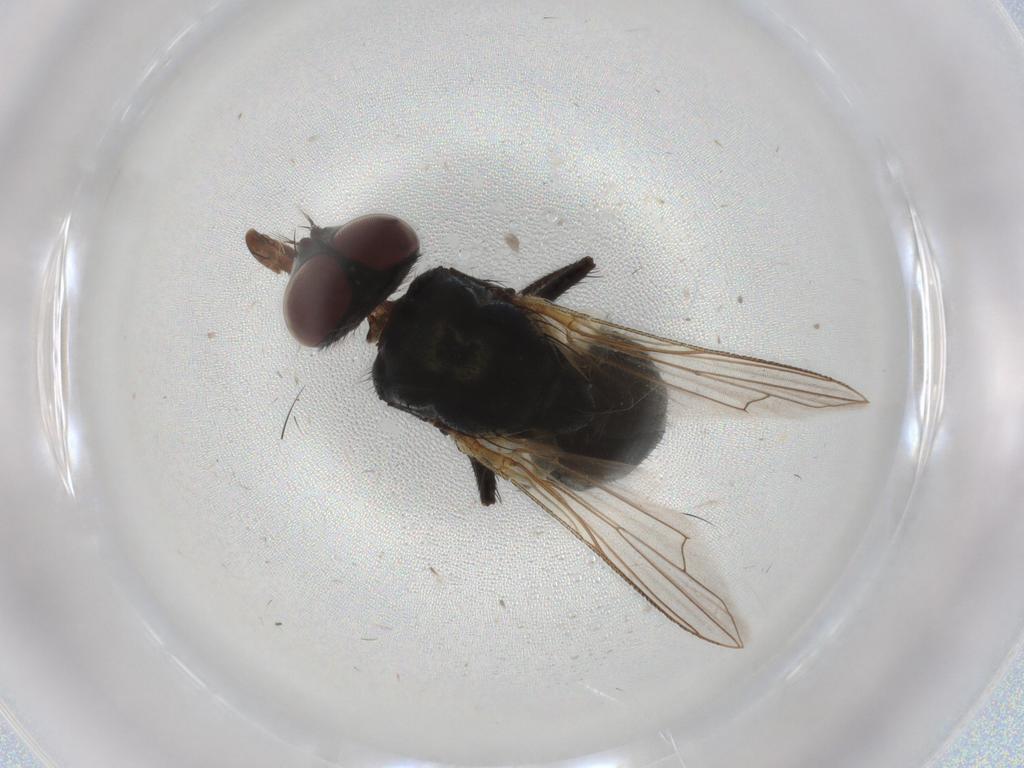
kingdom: Animalia
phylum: Arthropoda
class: Insecta
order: Diptera
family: Muscidae
